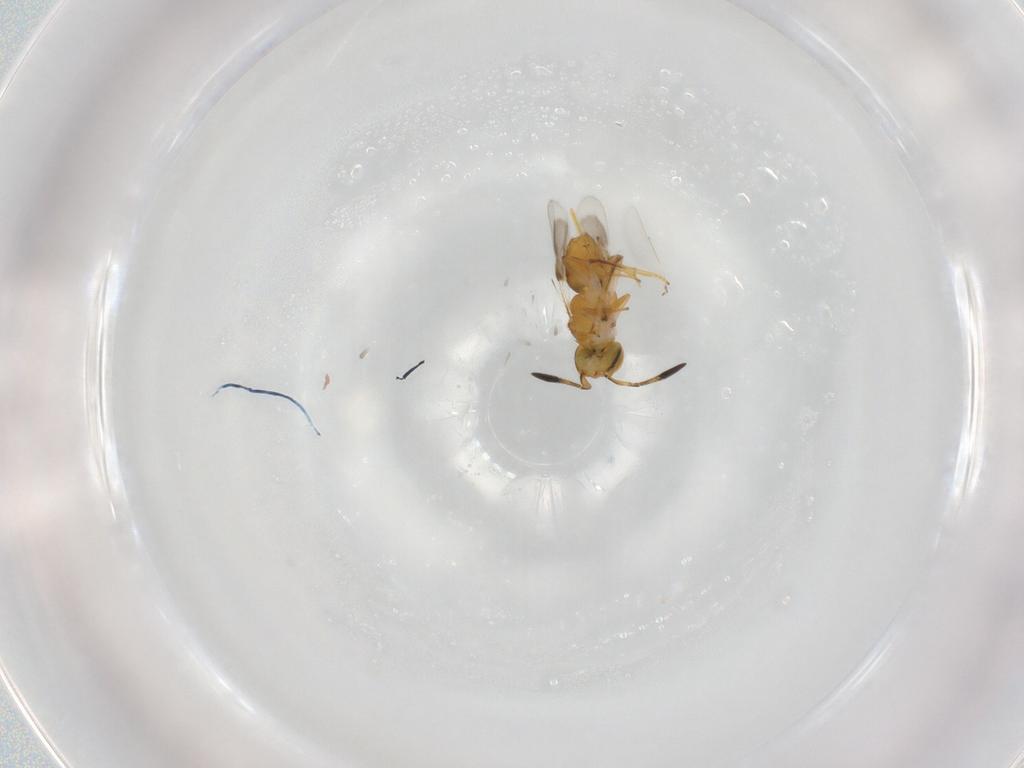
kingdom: Animalia
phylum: Arthropoda
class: Insecta
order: Hymenoptera
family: Encyrtidae
